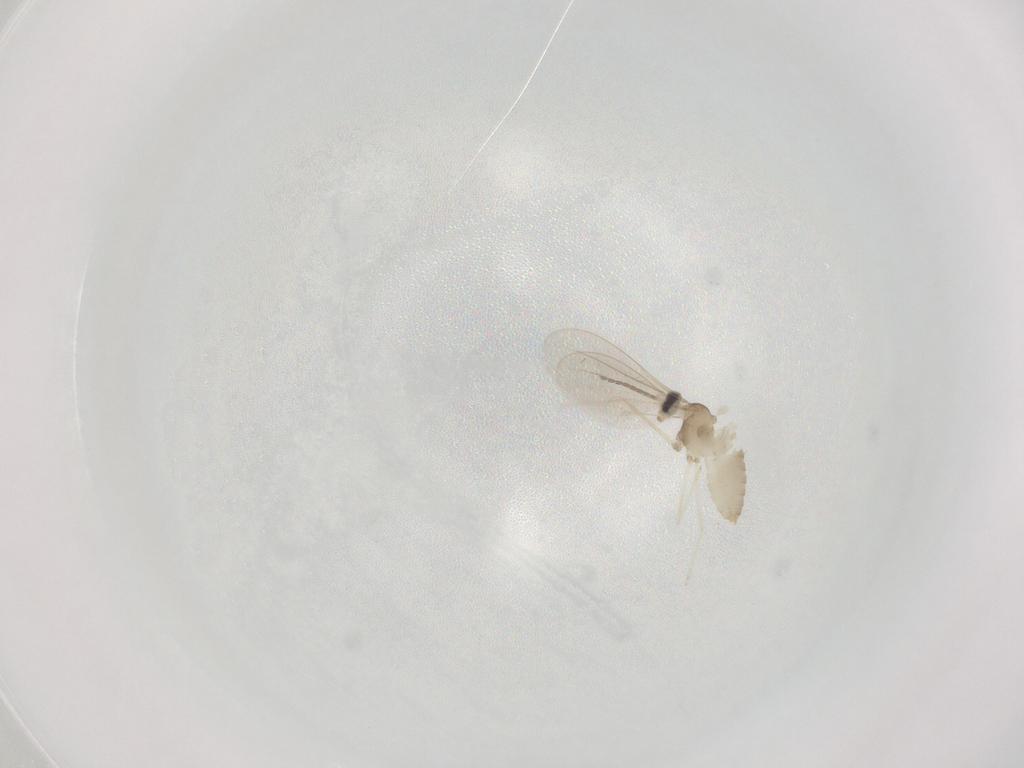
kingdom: Animalia
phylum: Arthropoda
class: Insecta
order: Diptera
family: Cecidomyiidae
